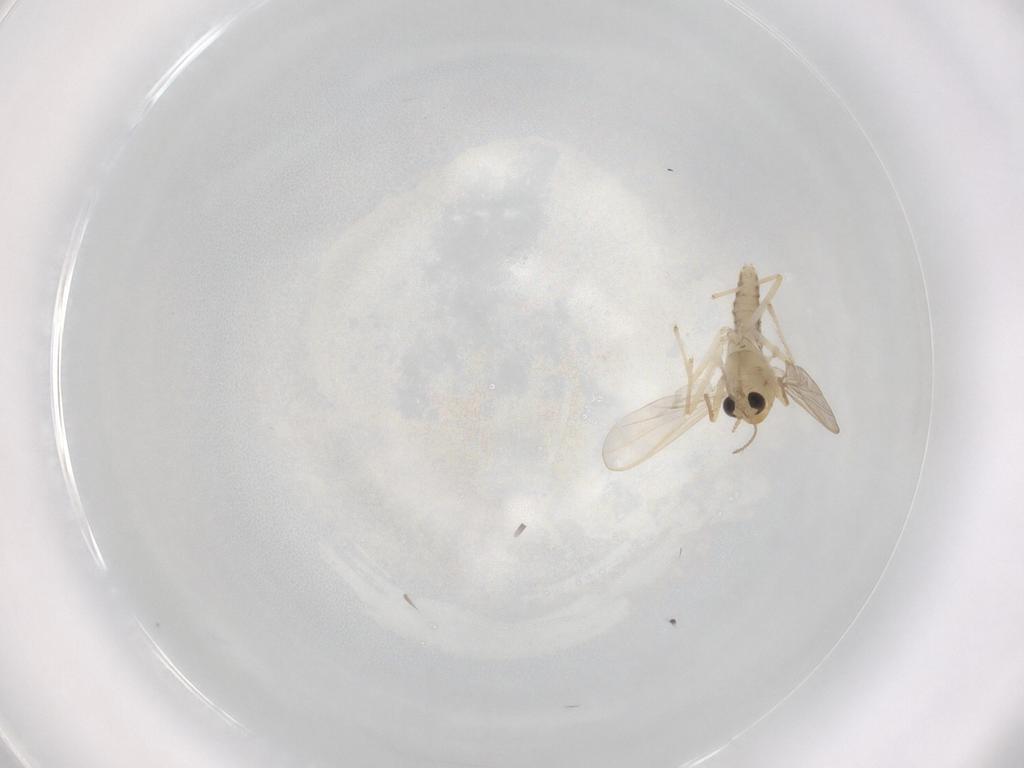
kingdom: Animalia
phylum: Arthropoda
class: Insecta
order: Diptera
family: Chironomidae
